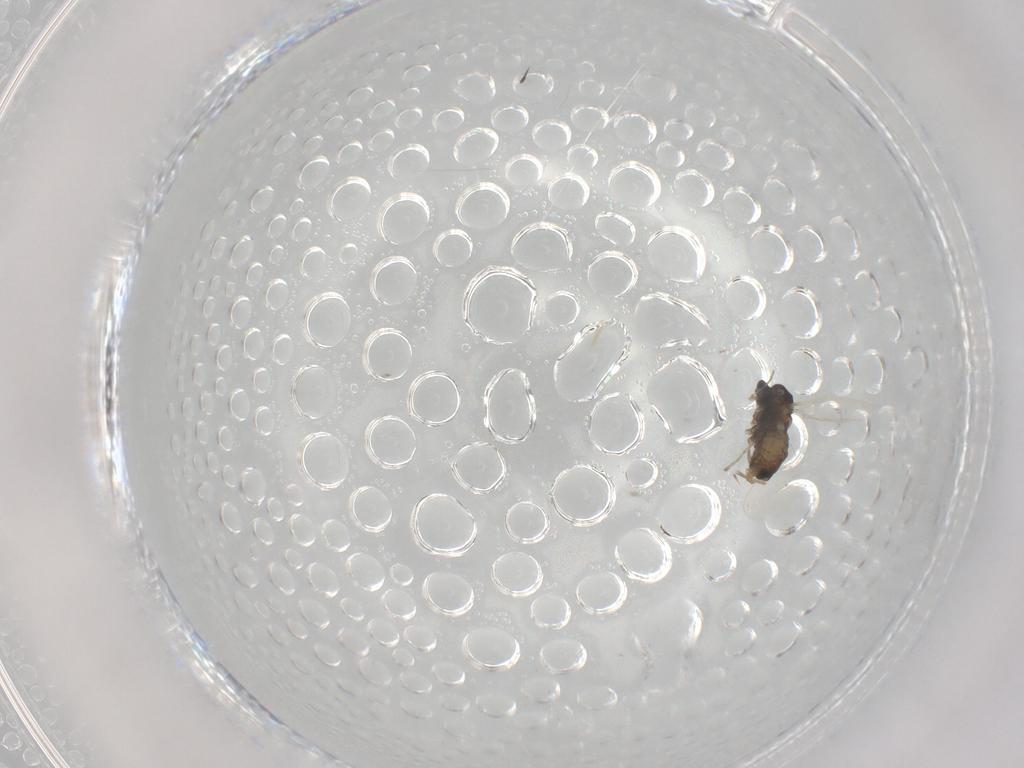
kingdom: Animalia
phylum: Arthropoda
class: Insecta
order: Diptera
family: Cecidomyiidae
